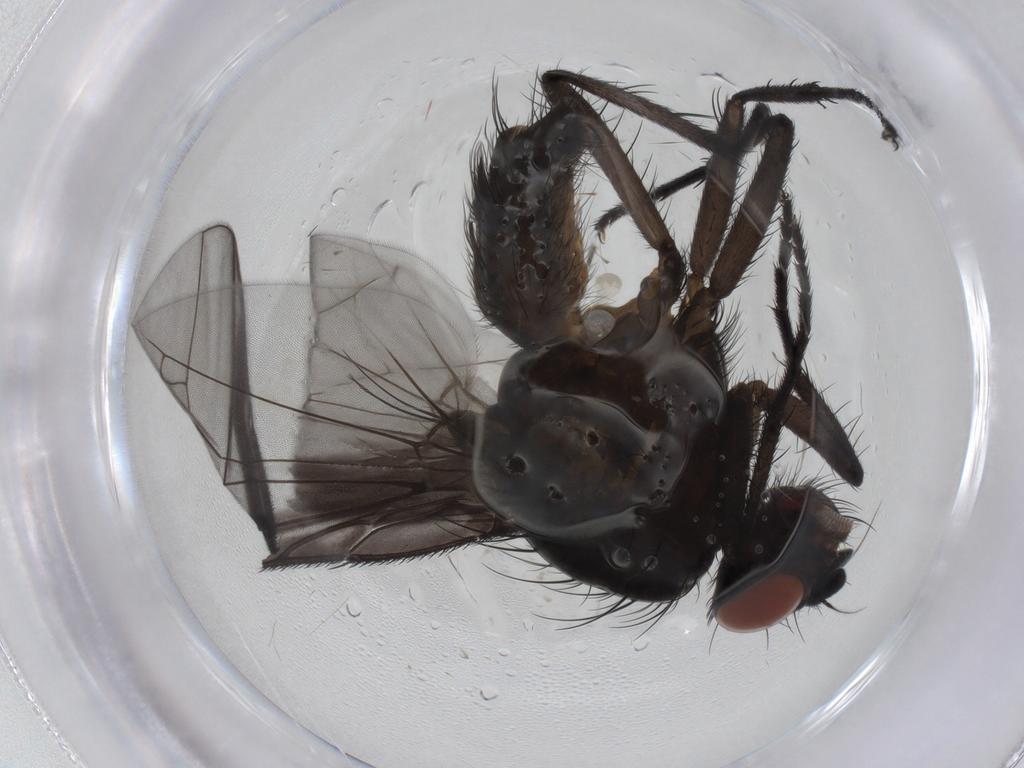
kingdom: Animalia
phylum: Arthropoda
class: Insecta
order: Diptera
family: Anthomyiidae
